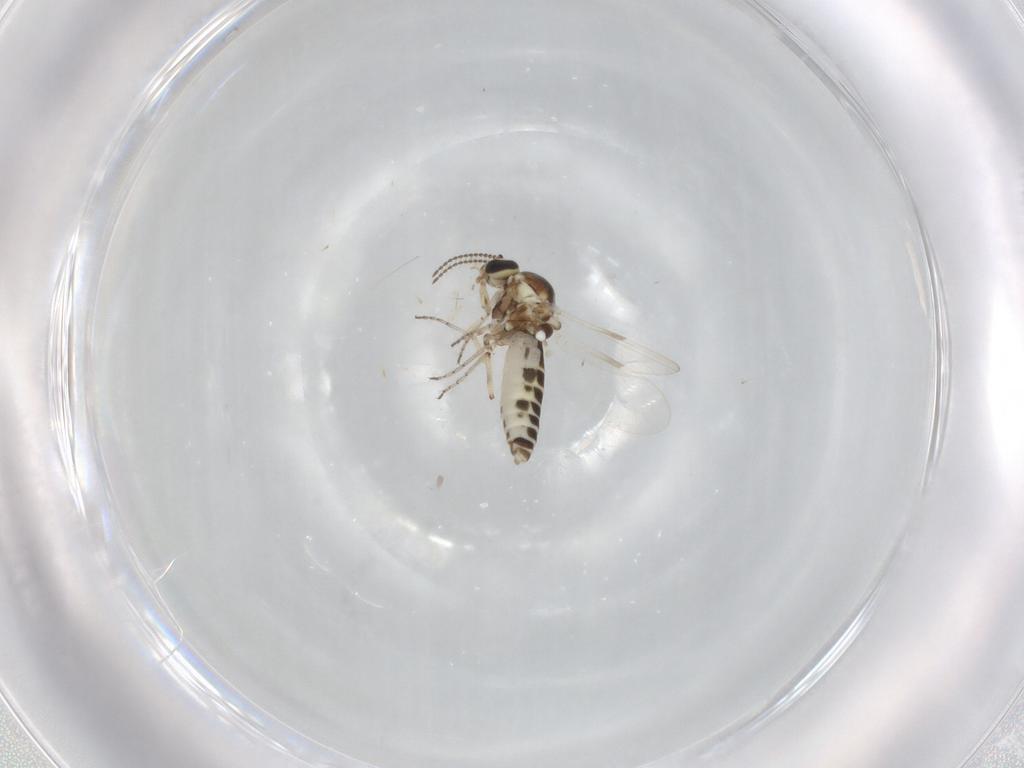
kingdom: Animalia
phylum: Arthropoda
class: Insecta
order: Diptera
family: Ceratopogonidae
